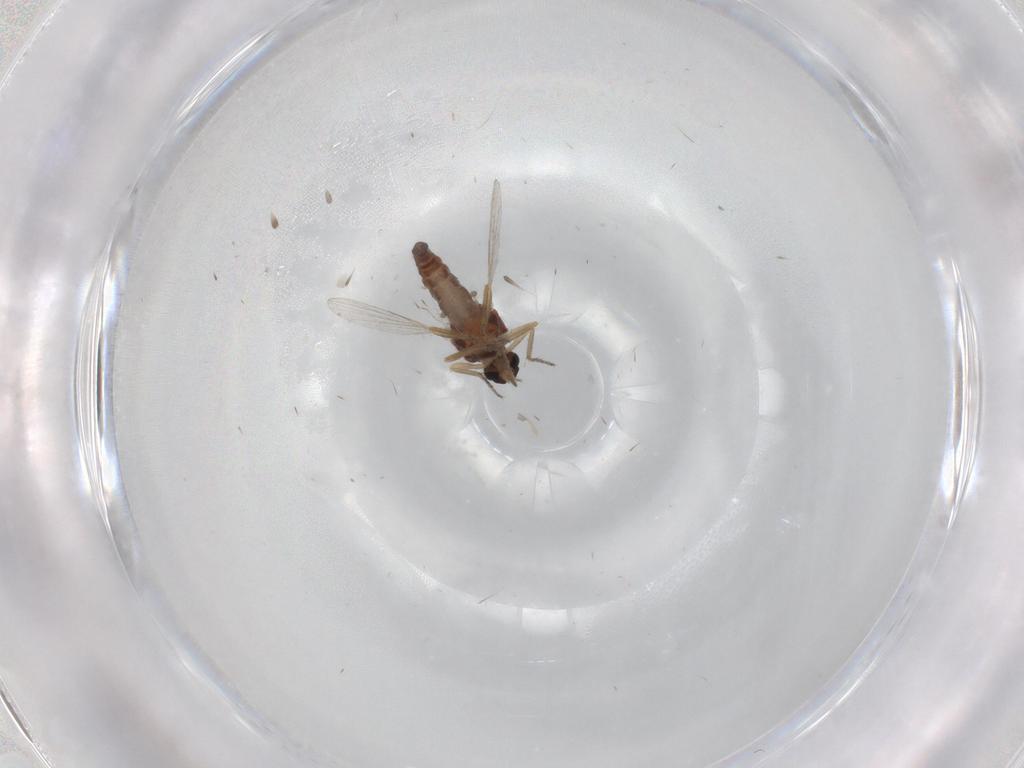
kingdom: Animalia
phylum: Arthropoda
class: Insecta
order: Diptera
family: Ceratopogonidae
